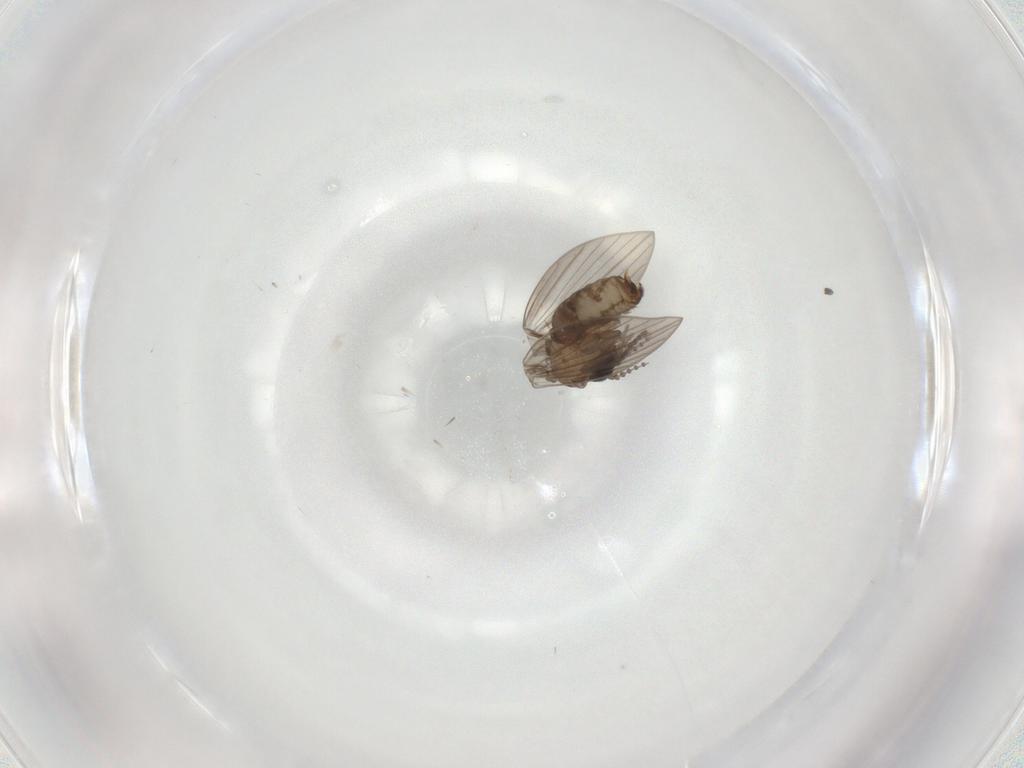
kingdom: Animalia
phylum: Arthropoda
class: Insecta
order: Diptera
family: Psychodidae
